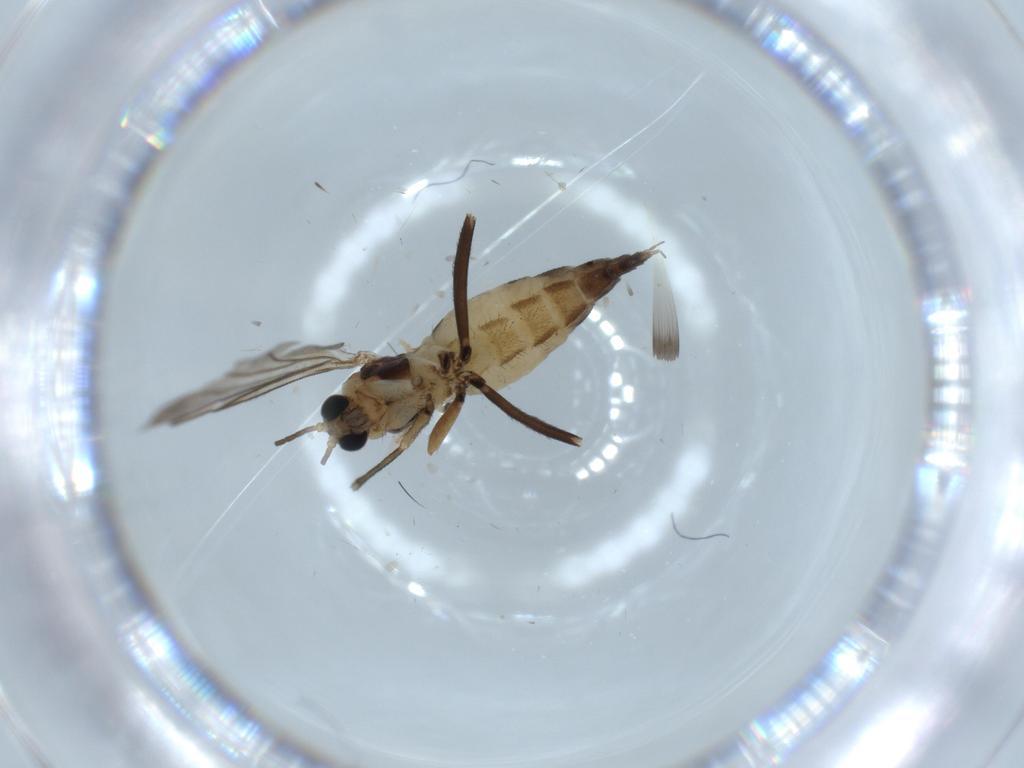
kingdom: Animalia
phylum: Arthropoda
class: Insecta
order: Diptera
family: Sciaridae
